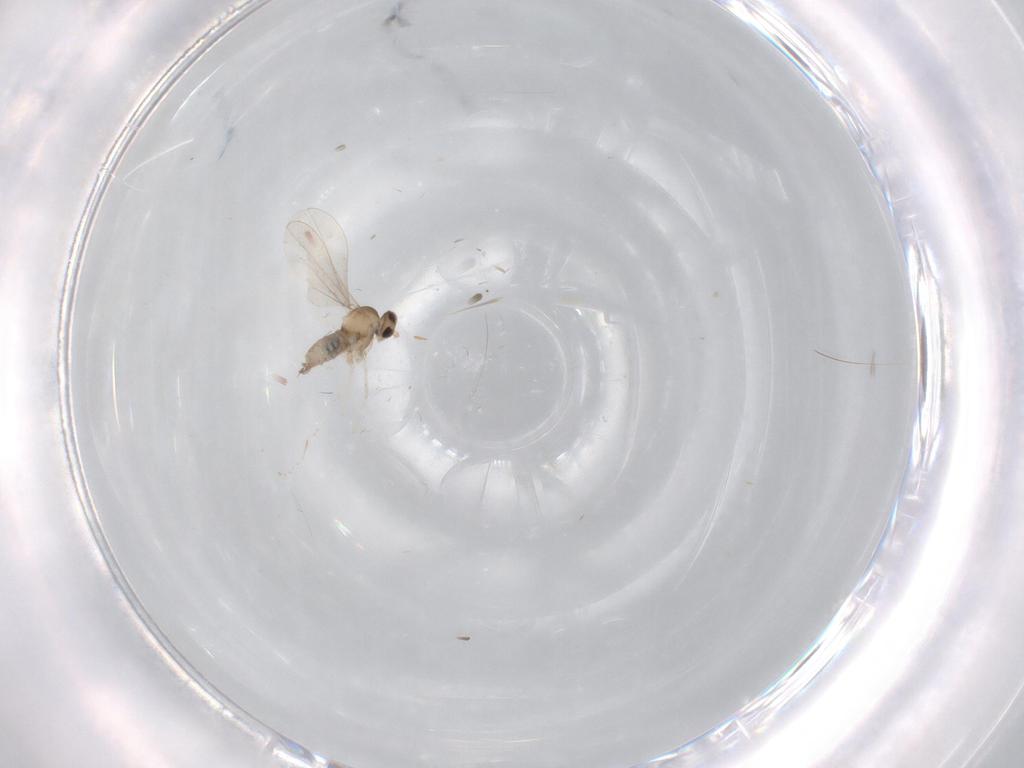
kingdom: Animalia
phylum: Arthropoda
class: Insecta
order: Diptera
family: Cecidomyiidae
